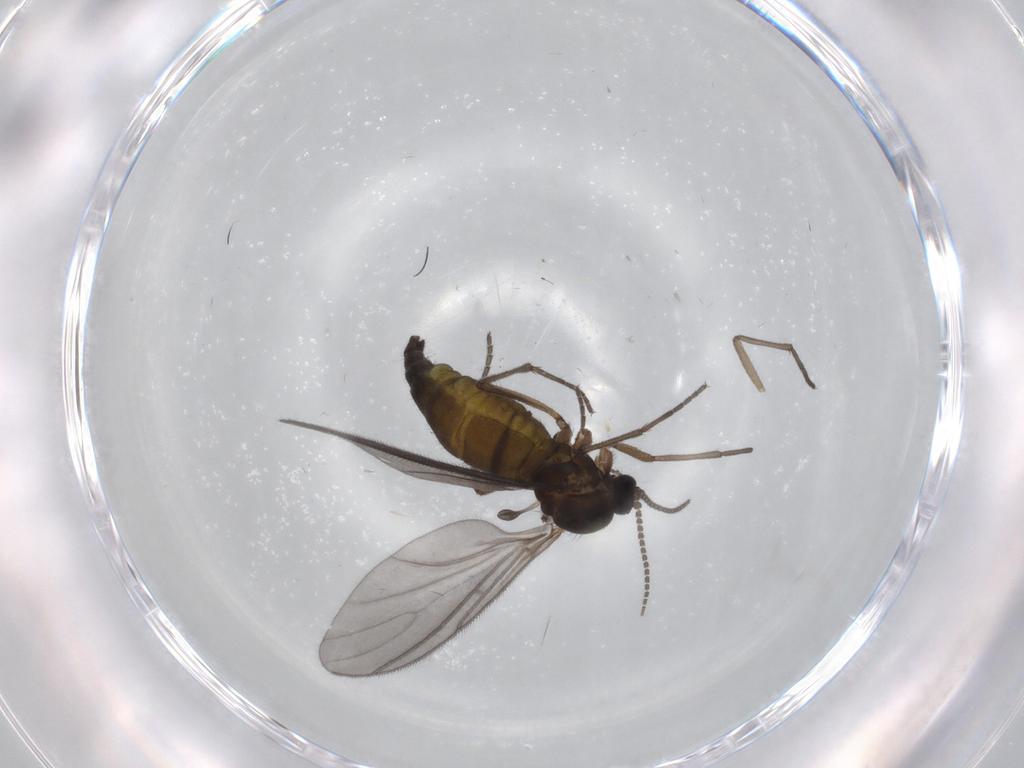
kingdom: Animalia
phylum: Arthropoda
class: Insecta
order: Diptera
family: Sciaridae
